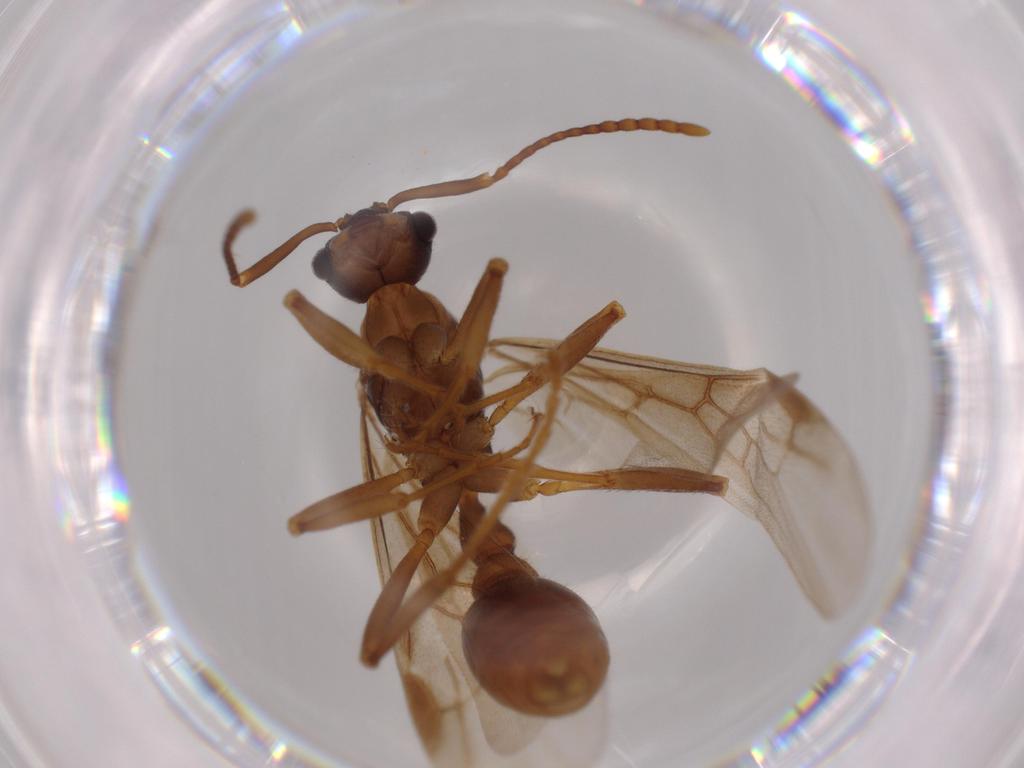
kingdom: Animalia
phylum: Arthropoda
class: Insecta
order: Hymenoptera
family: Formicidae
